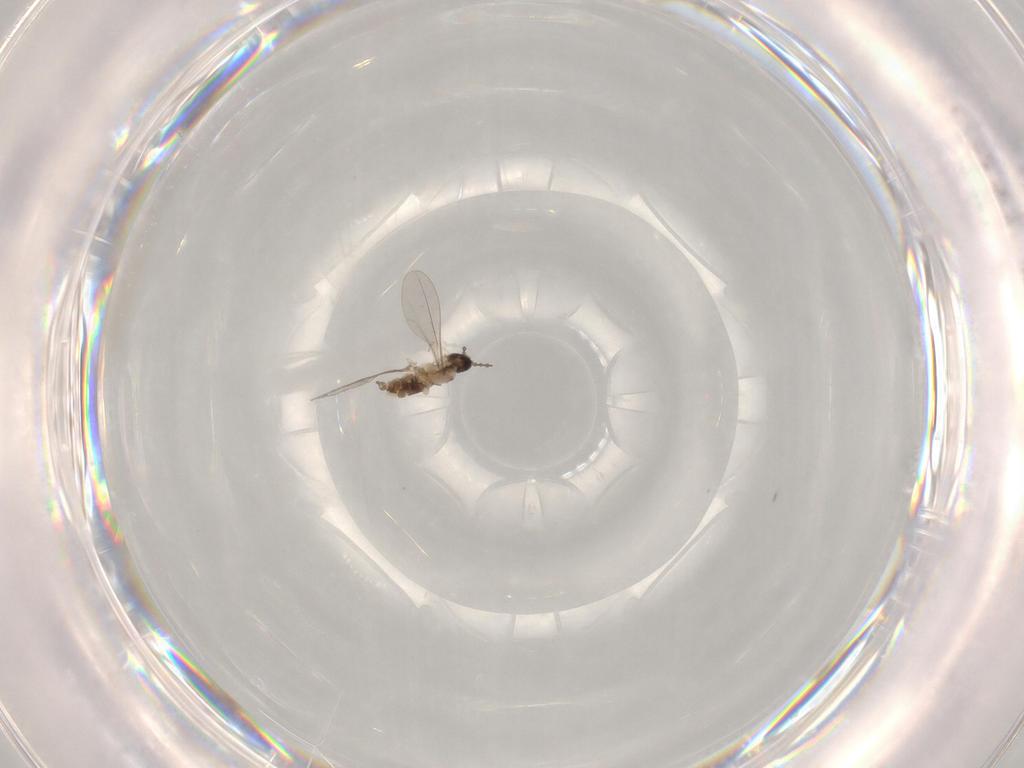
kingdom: Animalia
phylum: Arthropoda
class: Insecta
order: Diptera
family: Cecidomyiidae
